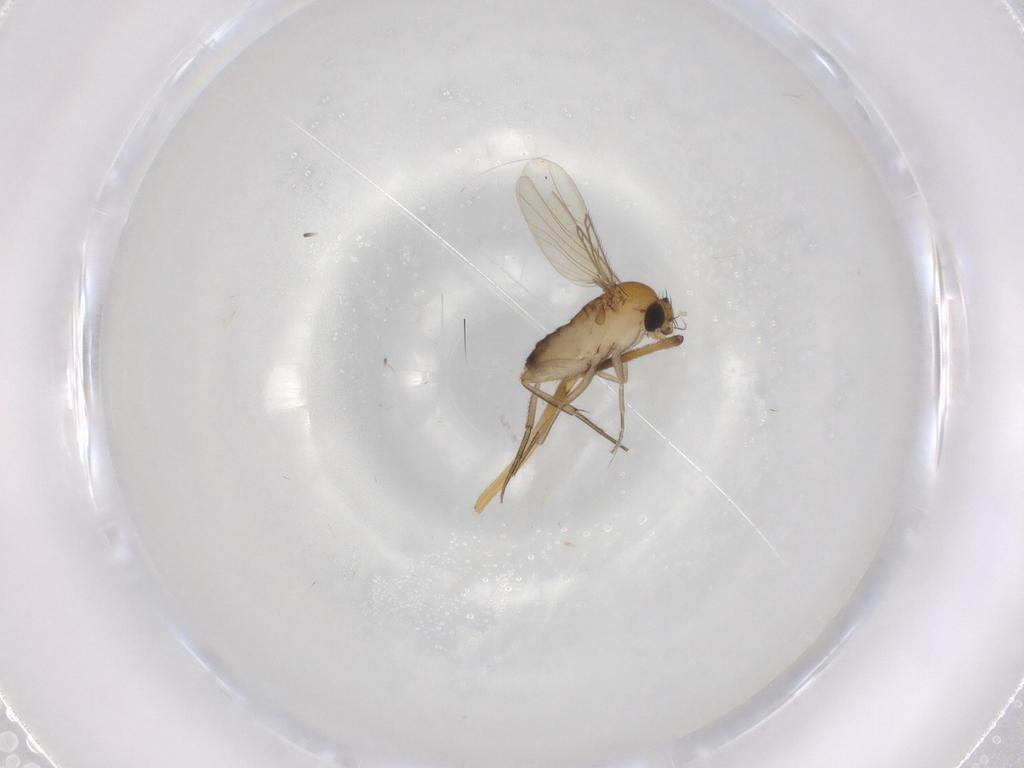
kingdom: Animalia
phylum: Arthropoda
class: Insecta
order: Diptera
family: Phoridae
